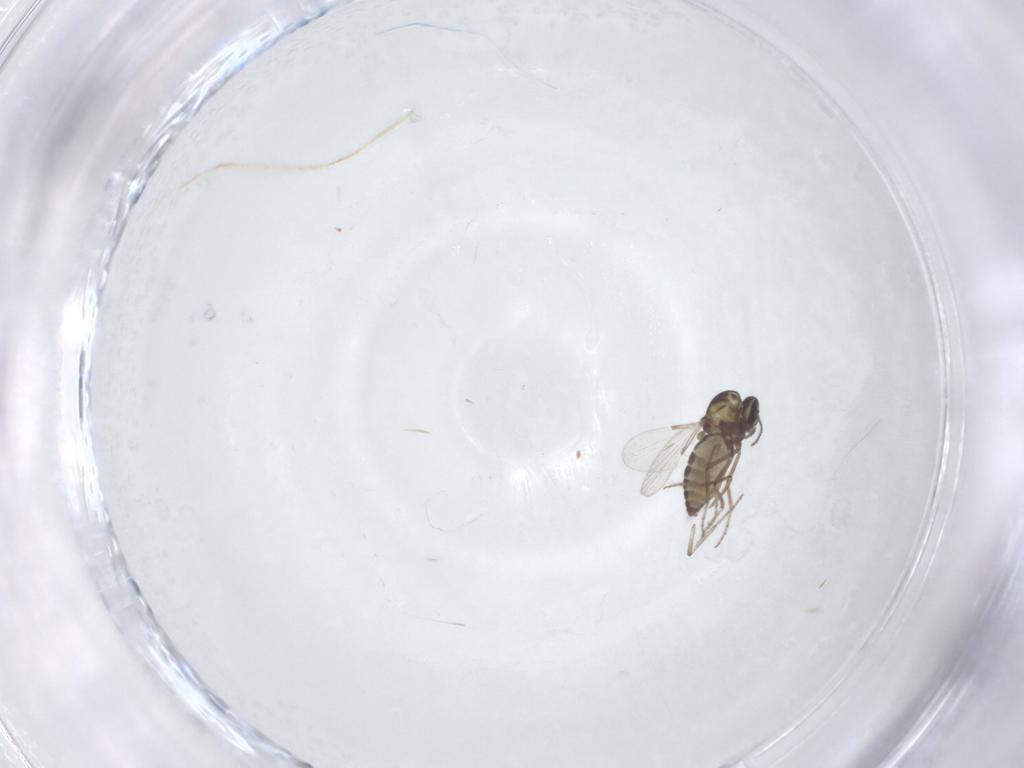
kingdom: Animalia
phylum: Arthropoda
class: Insecta
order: Diptera
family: Ceratopogonidae
